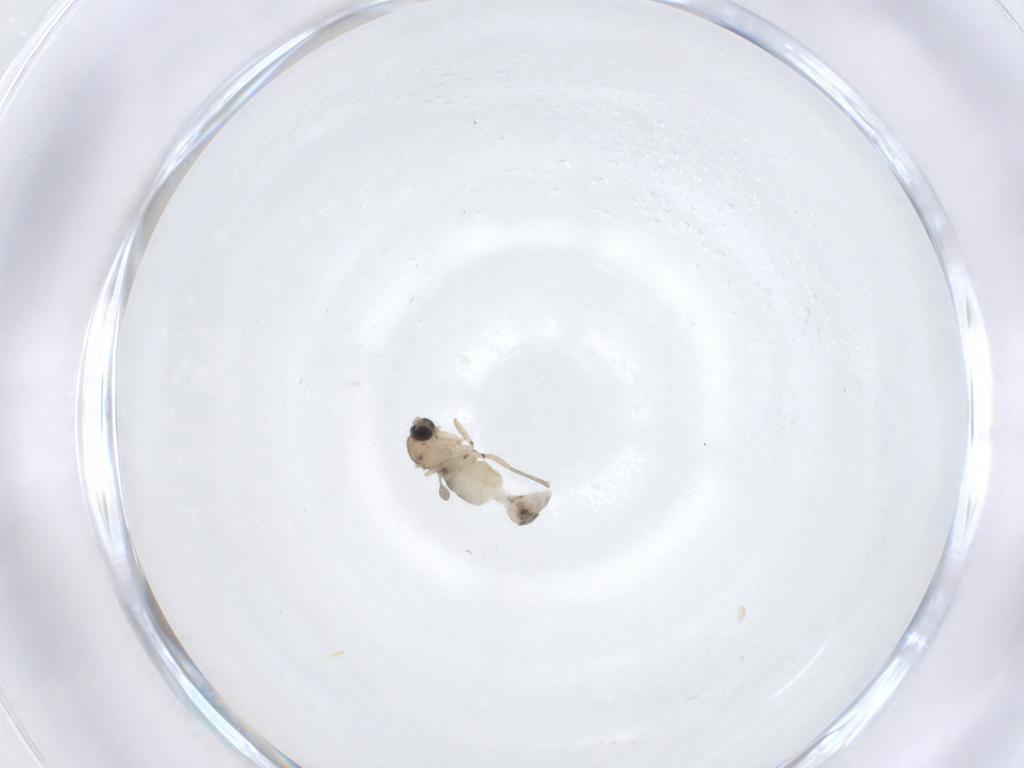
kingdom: Animalia
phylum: Arthropoda
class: Insecta
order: Diptera
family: Sciaridae
